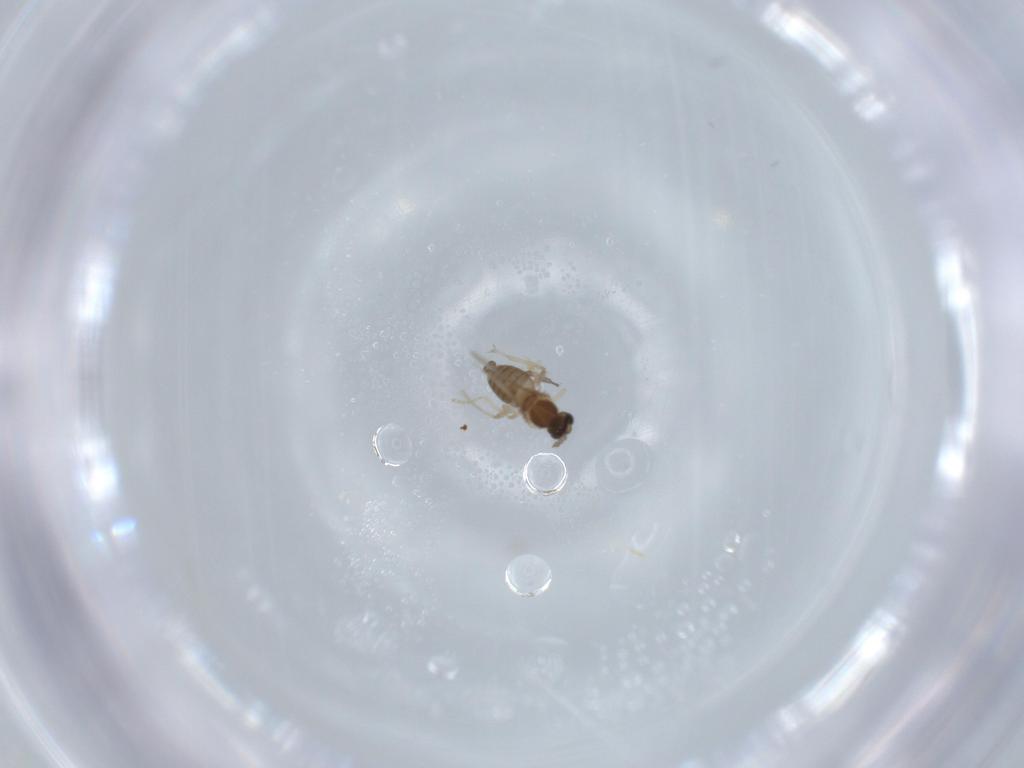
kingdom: Animalia
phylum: Arthropoda
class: Insecta
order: Diptera
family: Cecidomyiidae
